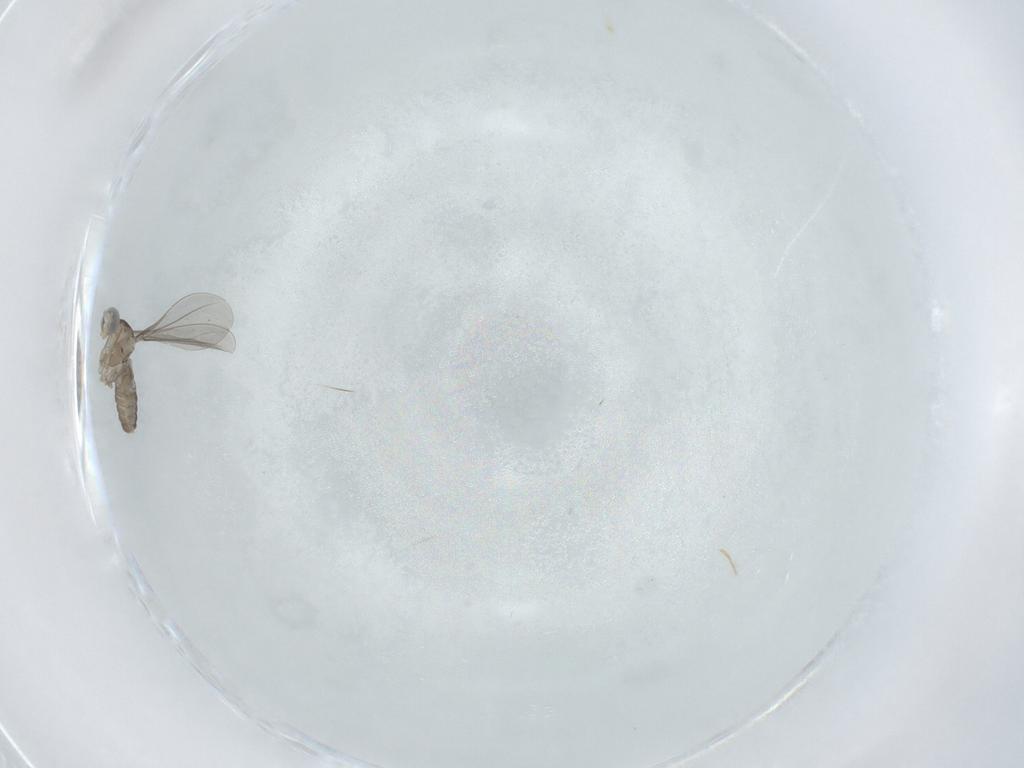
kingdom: Animalia
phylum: Arthropoda
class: Insecta
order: Diptera
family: Cecidomyiidae
